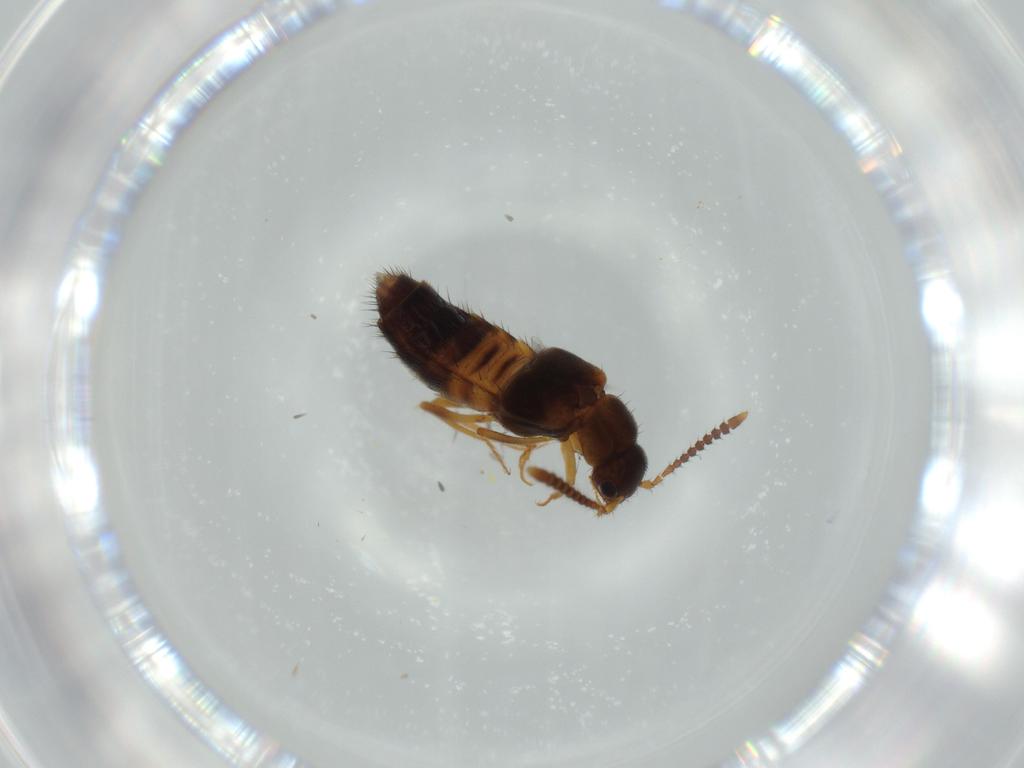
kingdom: Animalia
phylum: Arthropoda
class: Insecta
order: Coleoptera
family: Staphylinidae
